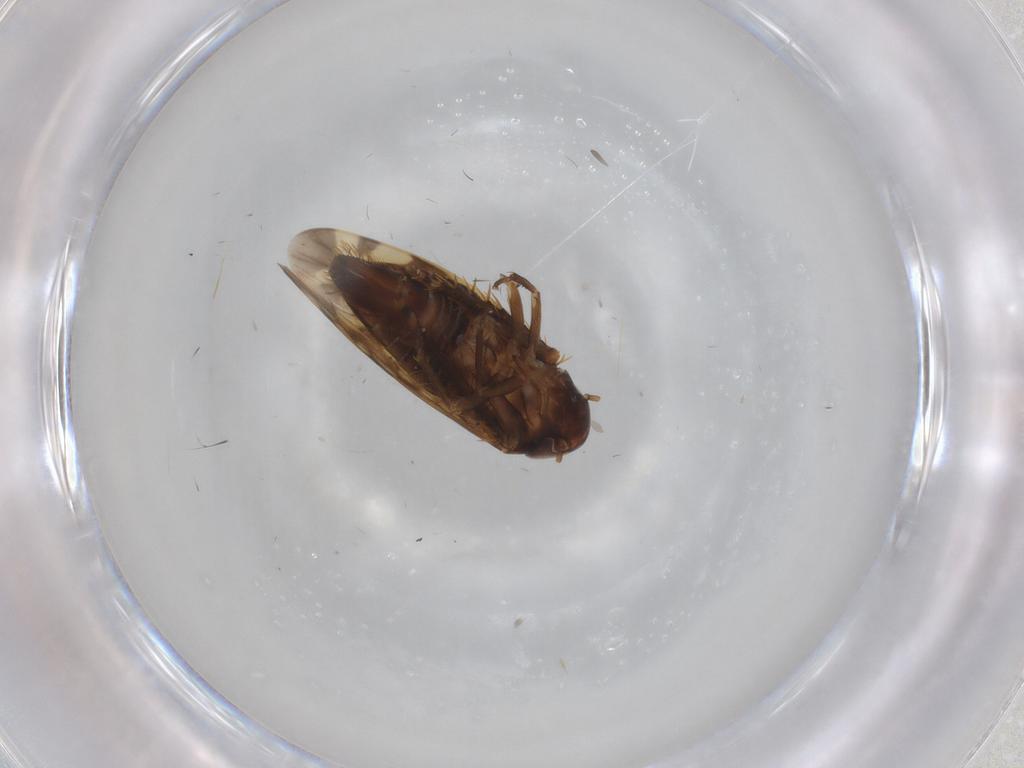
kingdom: Animalia
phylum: Arthropoda
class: Insecta
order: Hemiptera
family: Cicadellidae
